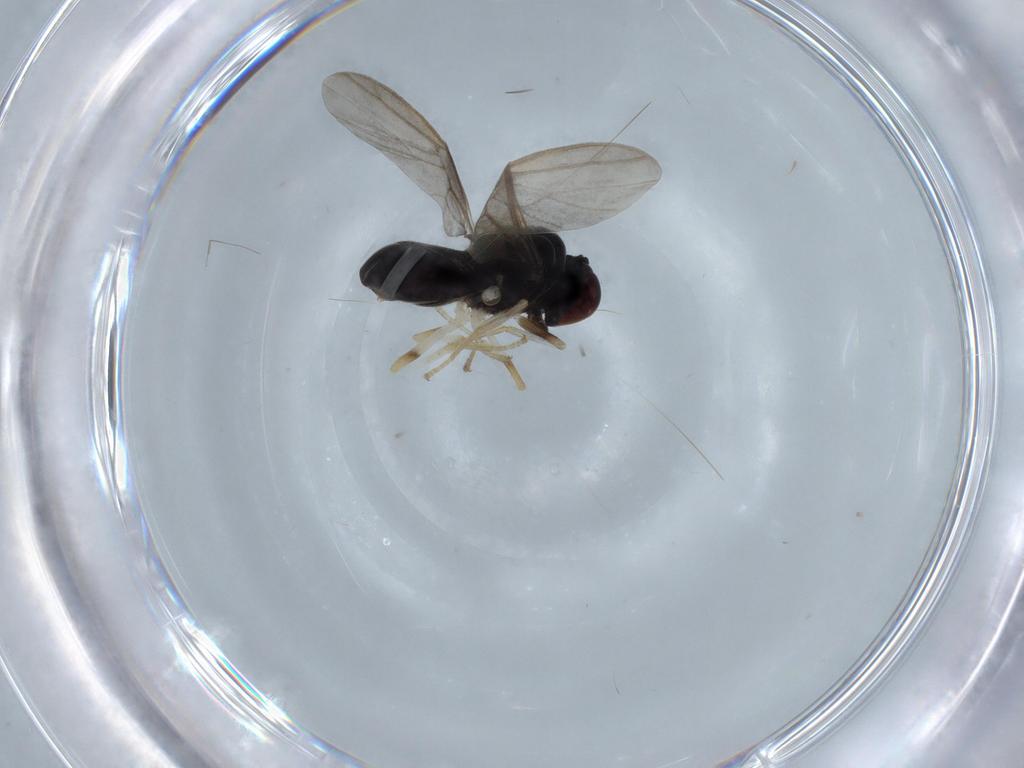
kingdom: Animalia
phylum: Arthropoda
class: Insecta
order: Diptera
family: Stratiomyidae
